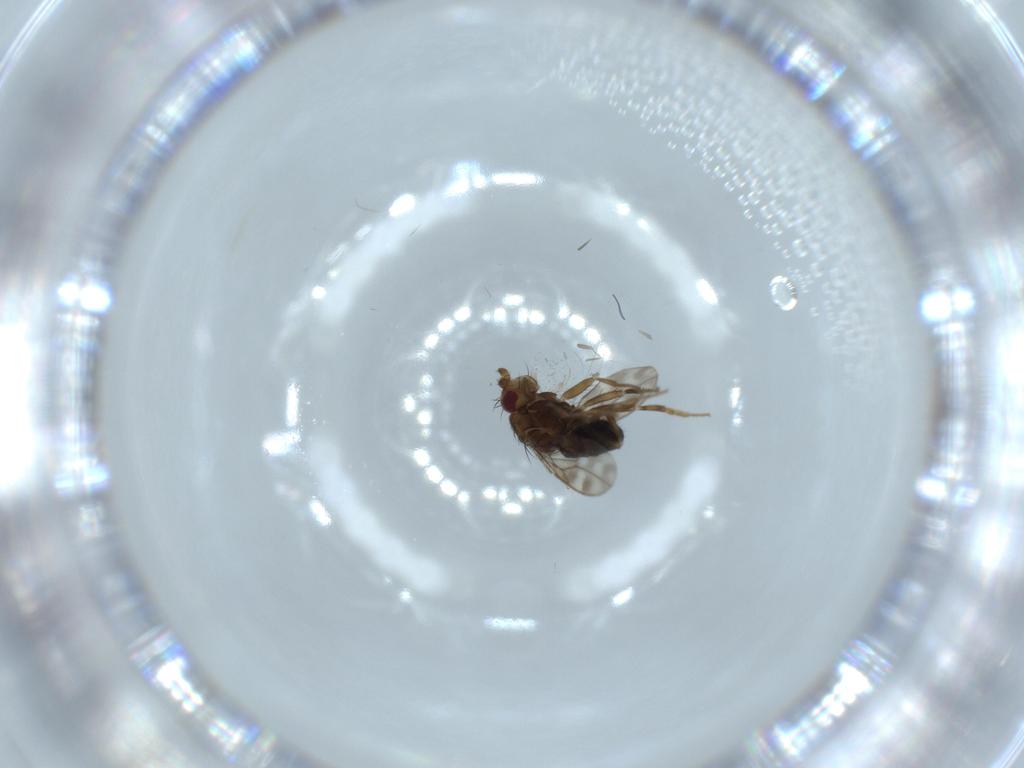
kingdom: Animalia
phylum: Arthropoda
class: Insecta
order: Diptera
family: Sphaeroceridae
